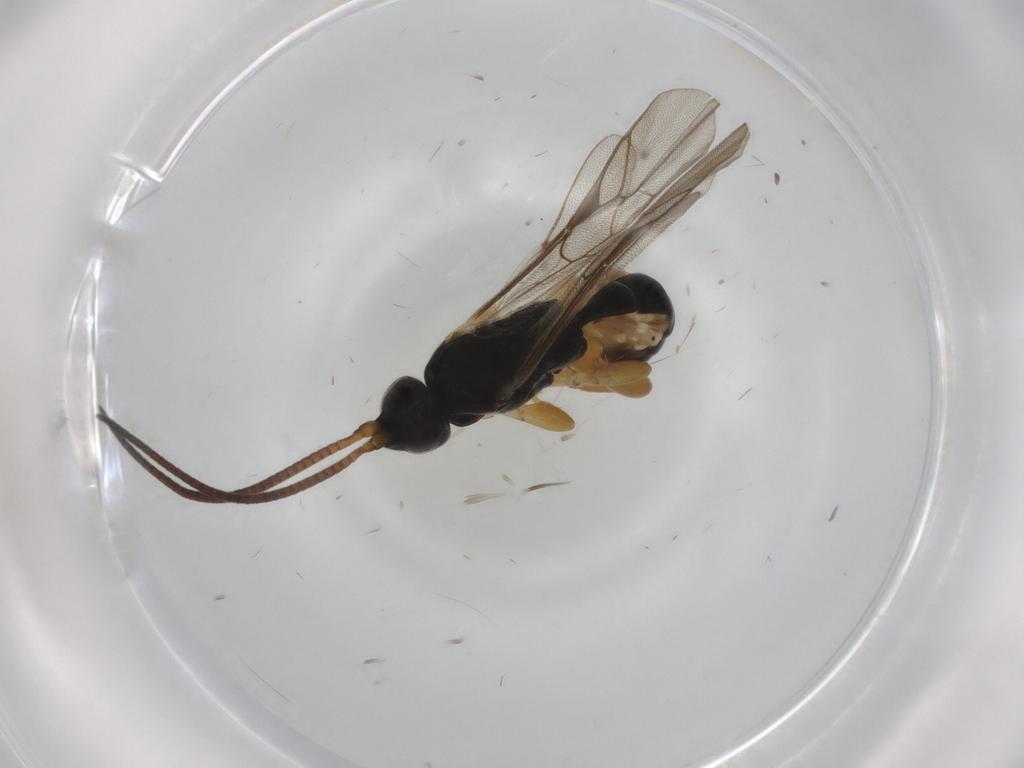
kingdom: Animalia
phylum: Arthropoda
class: Insecta
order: Hymenoptera
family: Ichneumonidae
